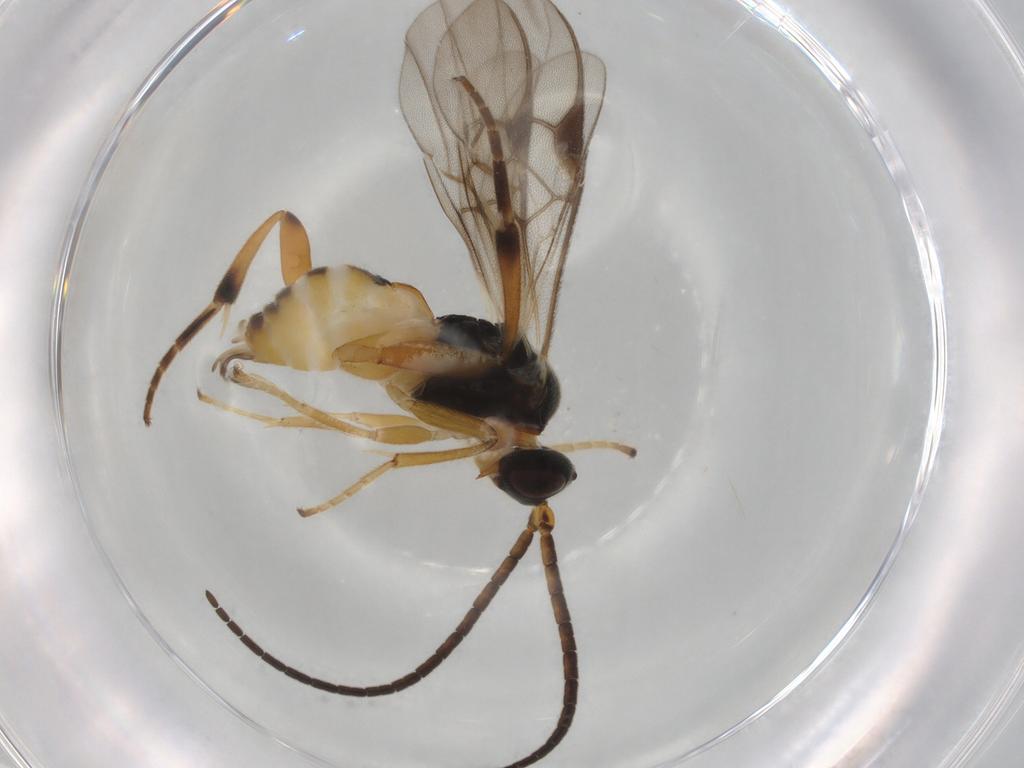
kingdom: Animalia
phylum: Arthropoda
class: Insecta
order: Hymenoptera
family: Braconidae
